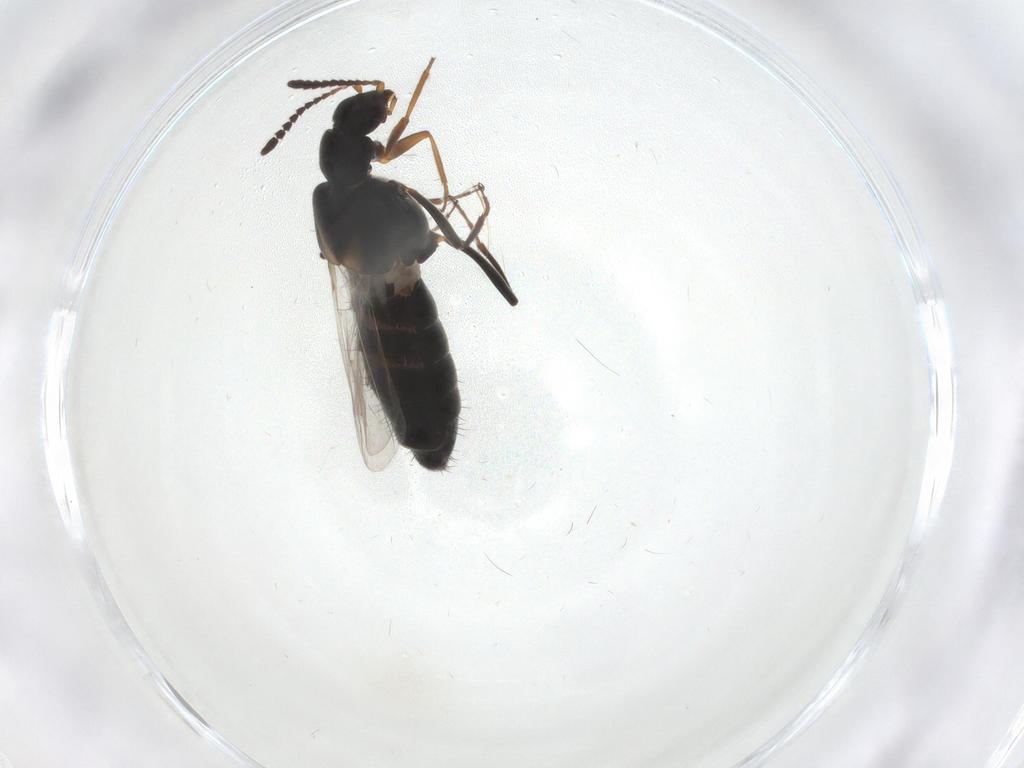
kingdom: Animalia
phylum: Arthropoda
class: Insecta
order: Coleoptera
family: Staphylinidae
